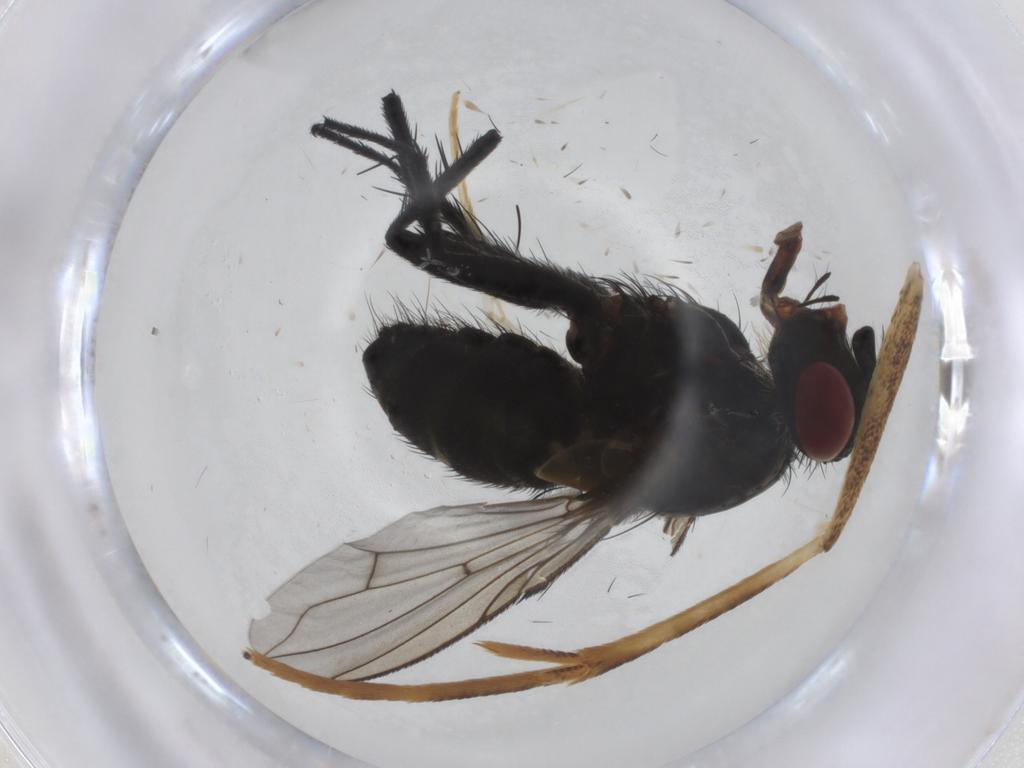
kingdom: Animalia
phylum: Arthropoda
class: Insecta
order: Diptera
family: Tachinidae
